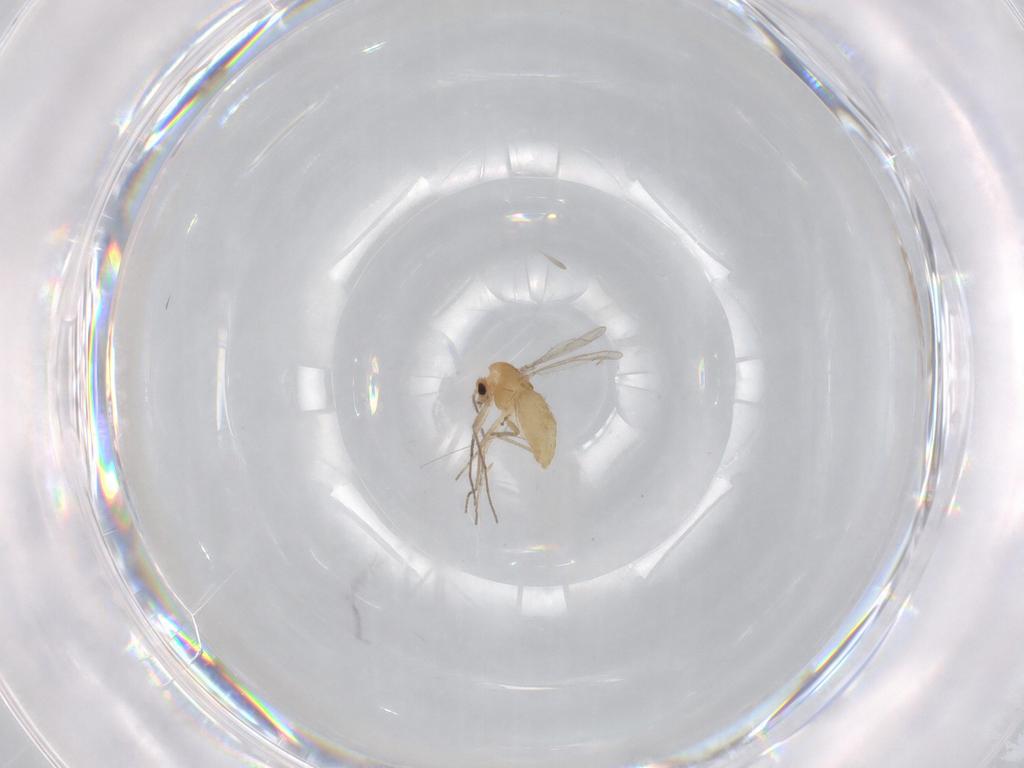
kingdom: Animalia
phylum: Arthropoda
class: Insecta
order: Diptera
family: Chironomidae
